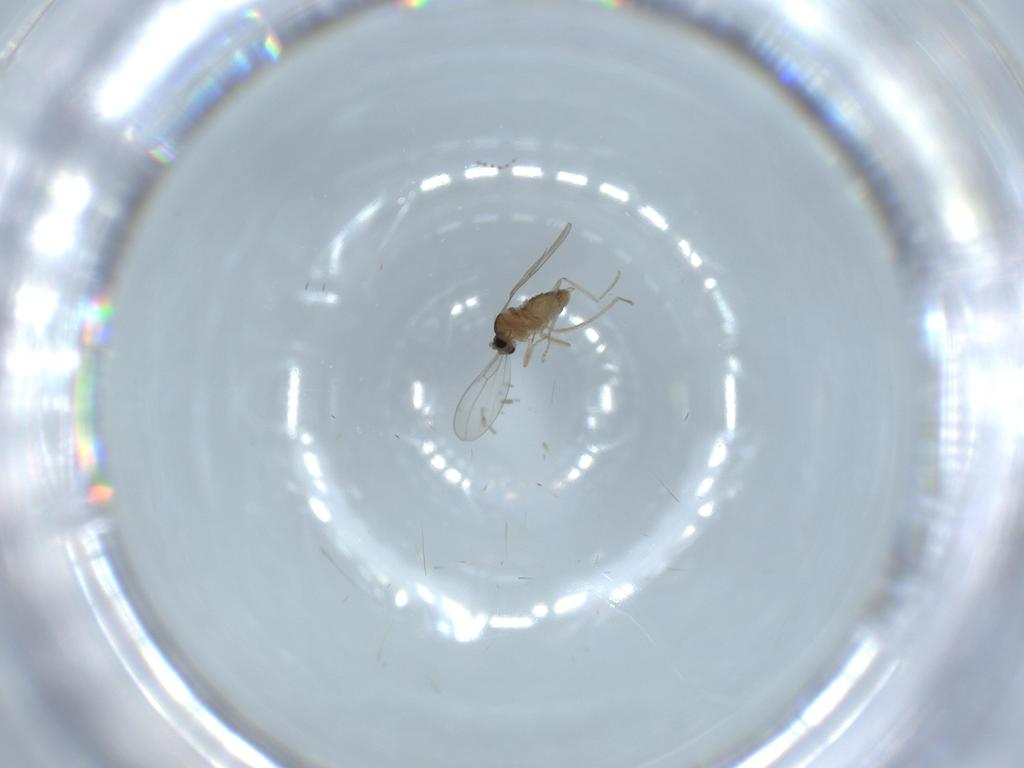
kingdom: Animalia
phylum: Arthropoda
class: Insecta
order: Diptera
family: Cecidomyiidae
